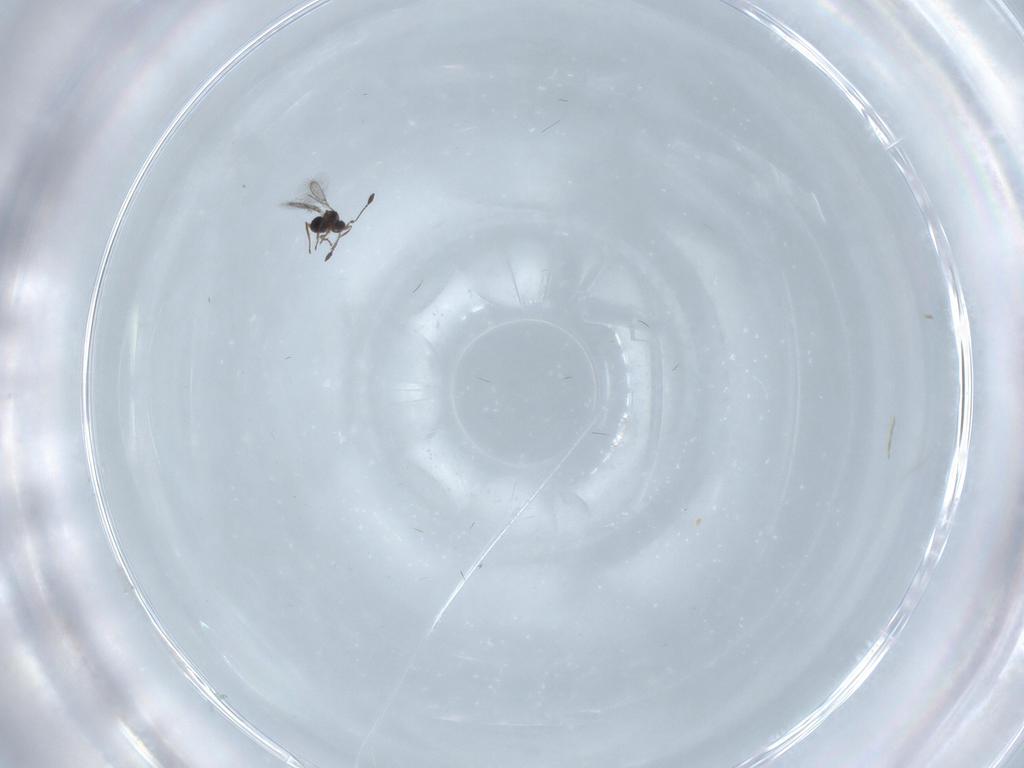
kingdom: Animalia
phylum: Arthropoda
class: Insecta
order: Hymenoptera
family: Mymaridae
